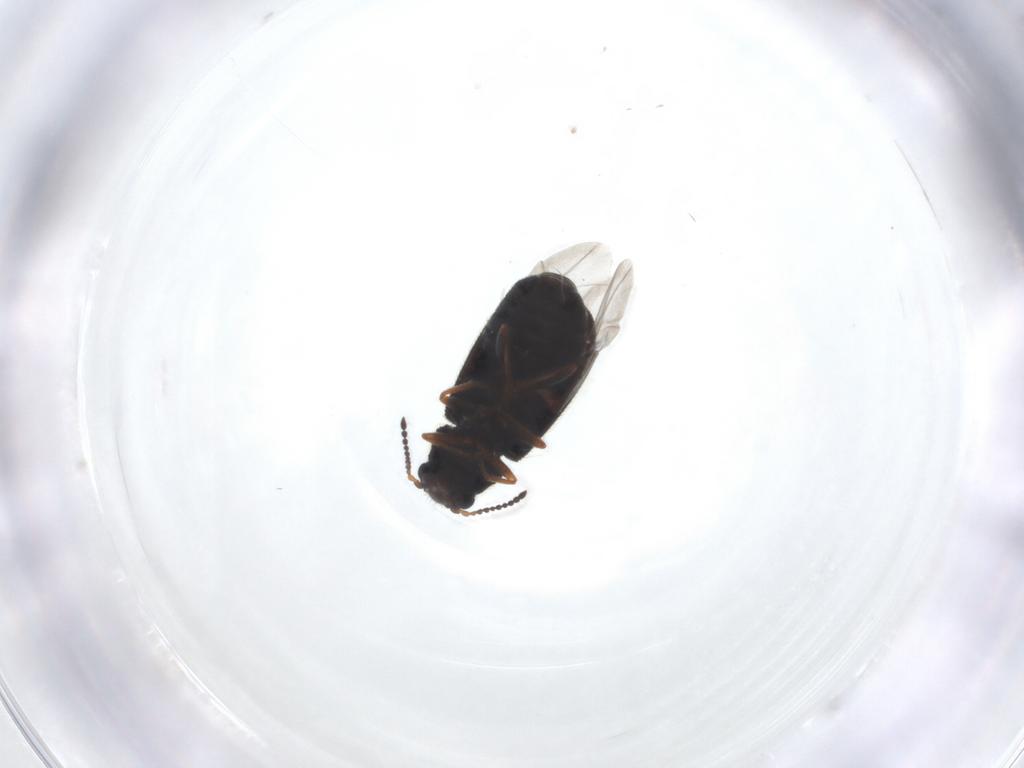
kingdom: Animalia
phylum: Arthropoda
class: Insecta
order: Coleoptera
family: Melyridae
